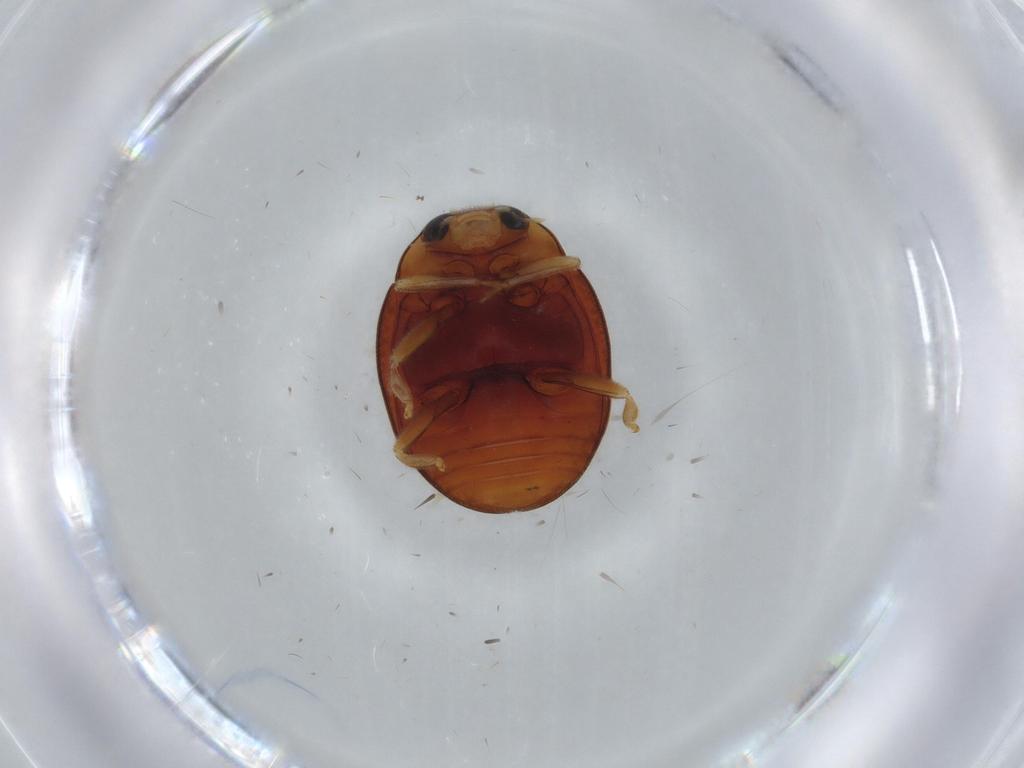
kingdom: Animalia
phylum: Arthropoda
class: Insecta
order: Coleoptera
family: Coccinellidae
